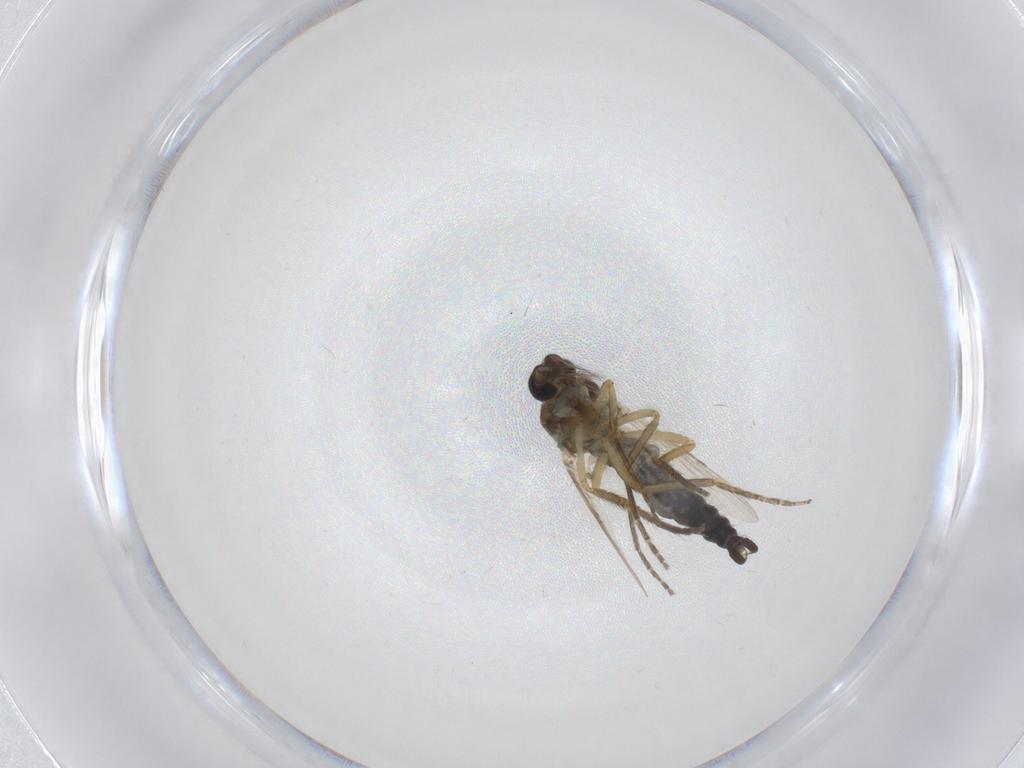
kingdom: Animalia
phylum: Arthropoda
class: Insecta
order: Diptera
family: Ceratopogonidae
